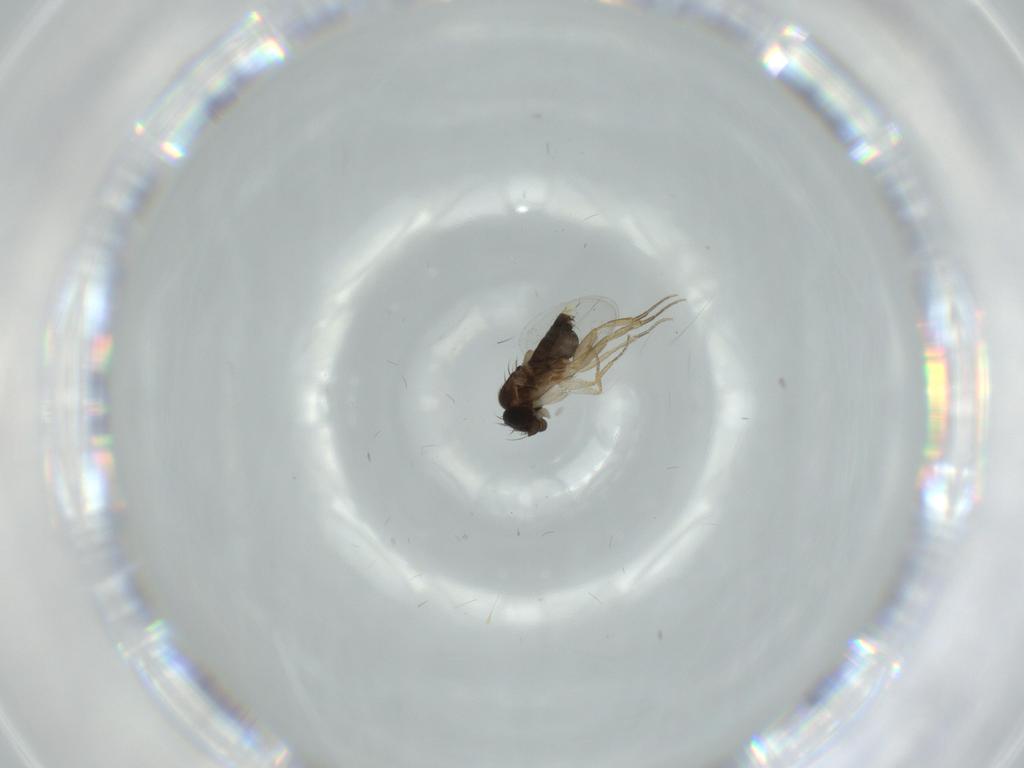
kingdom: Animalia
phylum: Arthropoda
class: Insecta
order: Diptera
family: Phoridae
